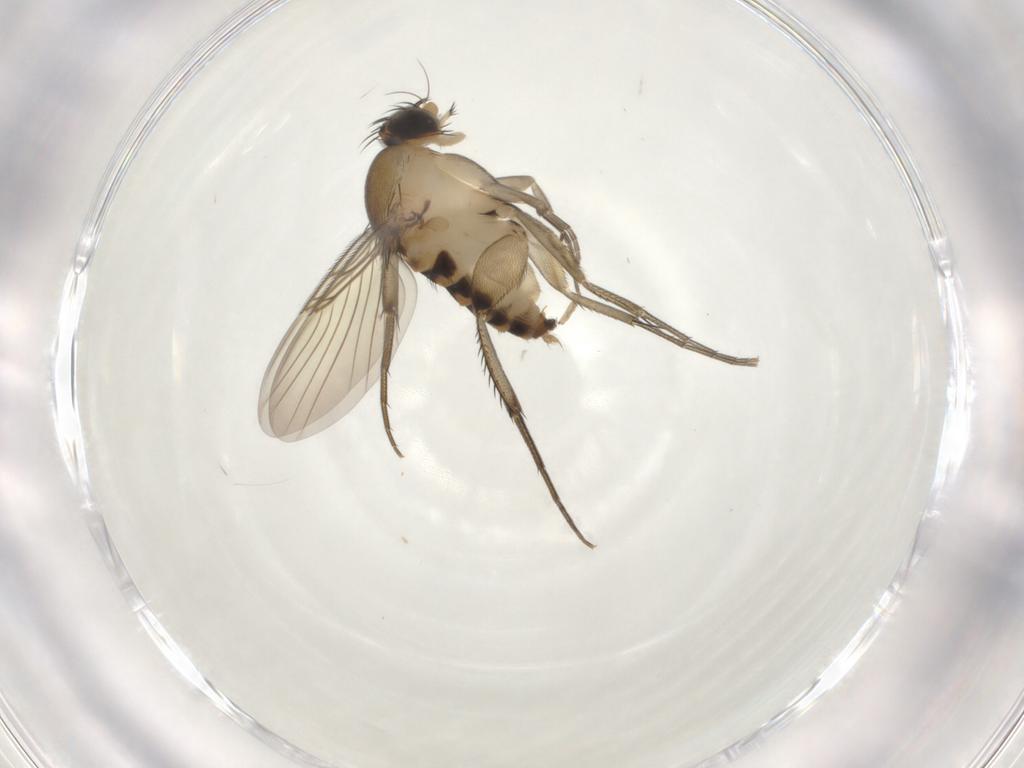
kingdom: Animalia
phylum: Arthropoda
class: Insecta
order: Diptera
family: Phoridae
